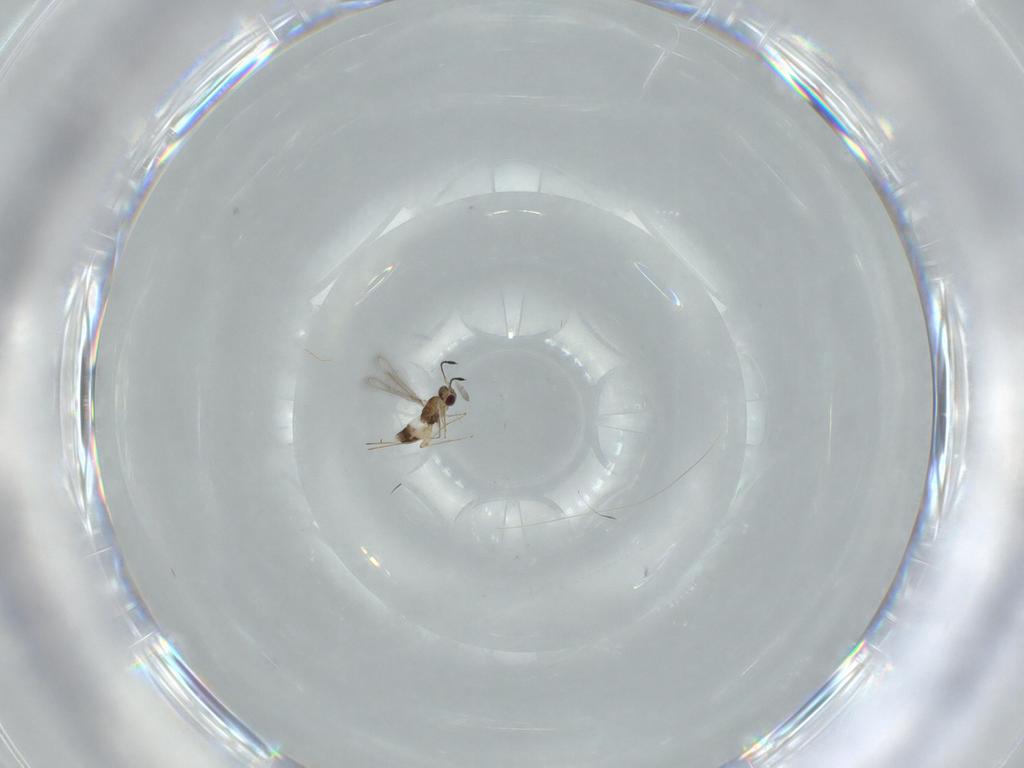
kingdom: Animalia
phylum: Arthropoda
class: Insecta
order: Hymenoptera
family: Mymaridae
